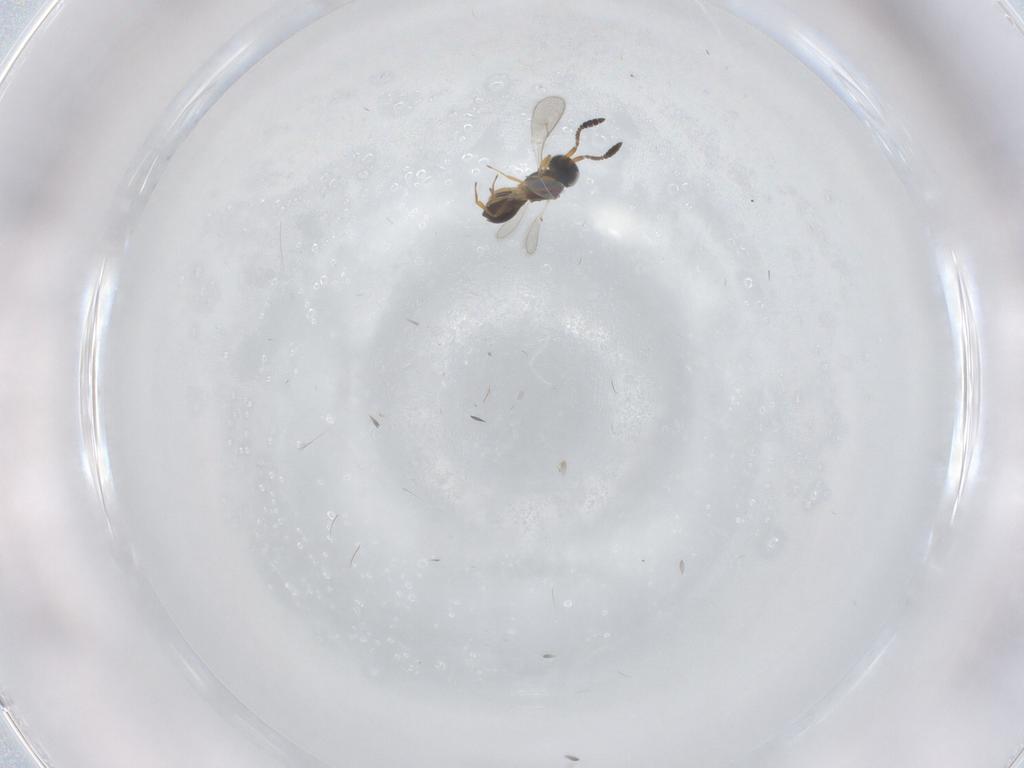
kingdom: Animalia
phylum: Arthropoda
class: Insecta
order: Hymenoptera
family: Scelionidae
